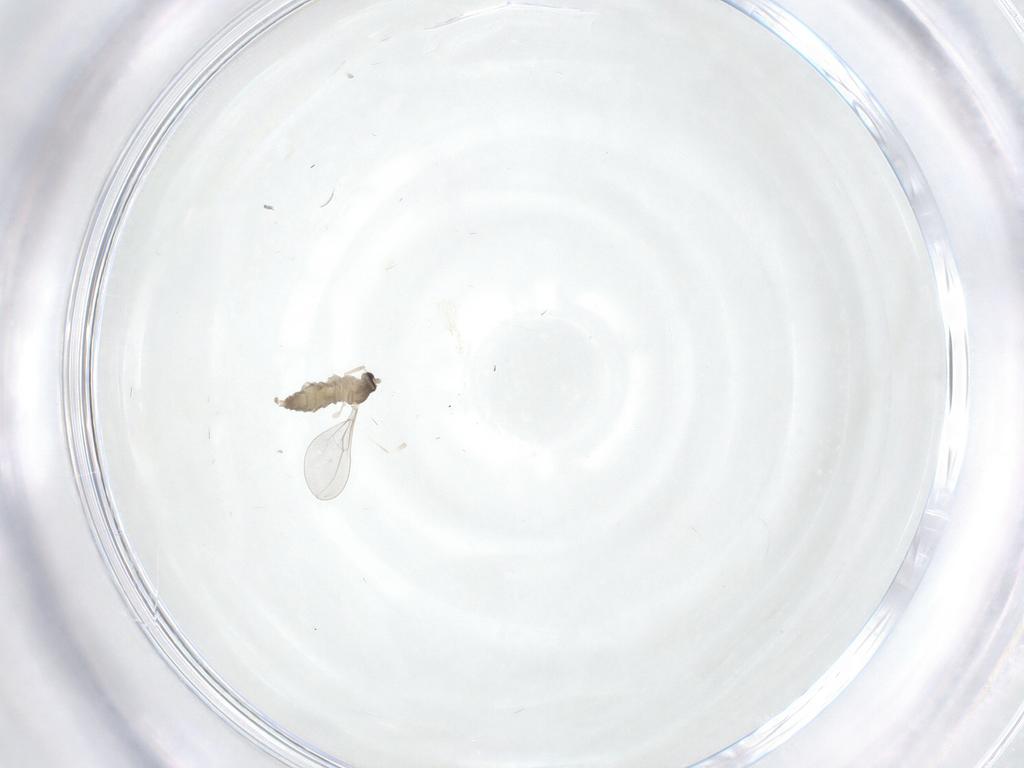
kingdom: Animalia
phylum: Arthropoda
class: Insecta
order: Diptera
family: Cecidomyiidae
